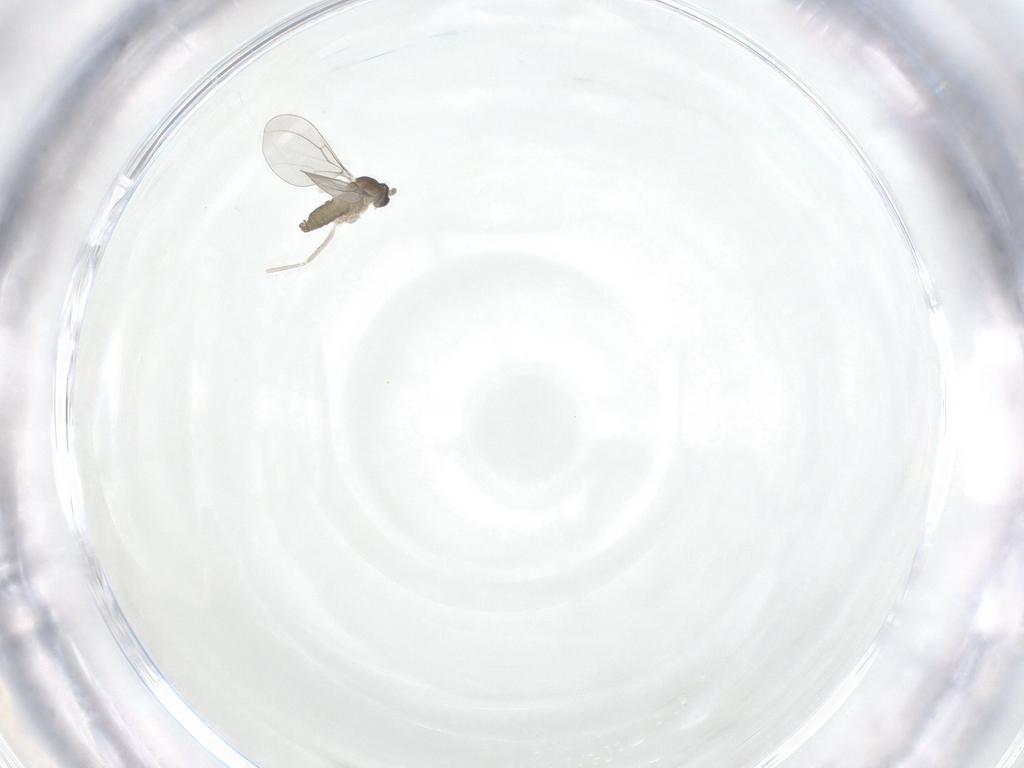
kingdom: Animalia
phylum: Arthropoda
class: Insecta
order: Diptera
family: Cecidomyiidae
